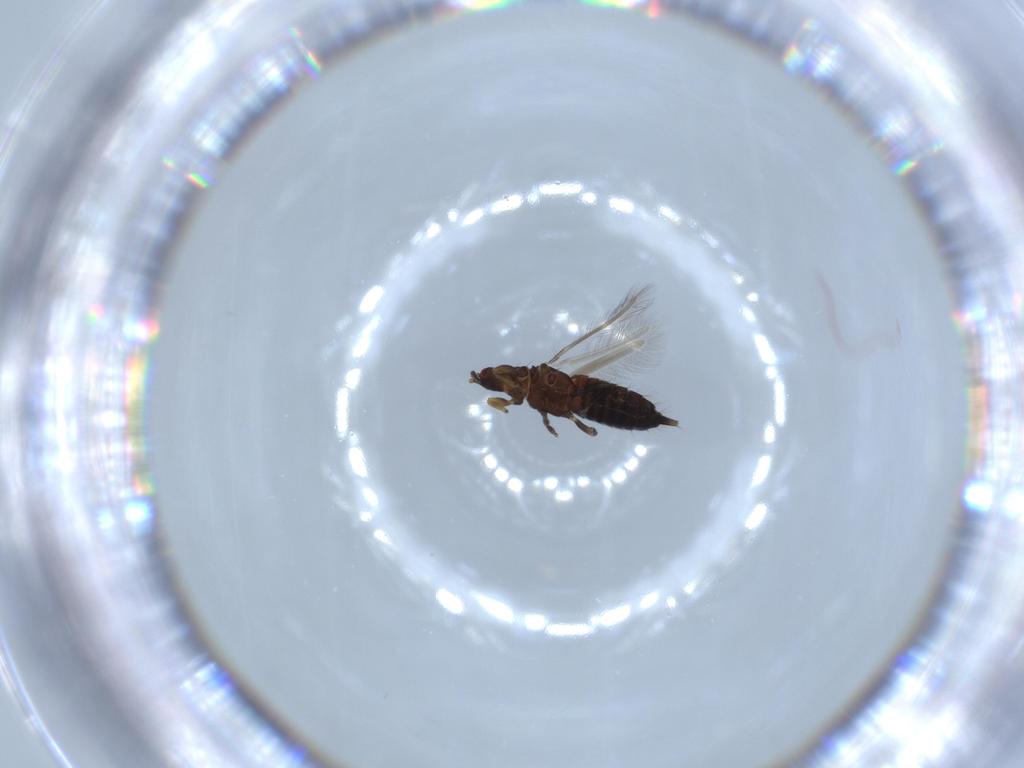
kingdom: Animalia
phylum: Arthropoda
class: Insecta
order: Thysanoptera
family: Phlaeothripidae
